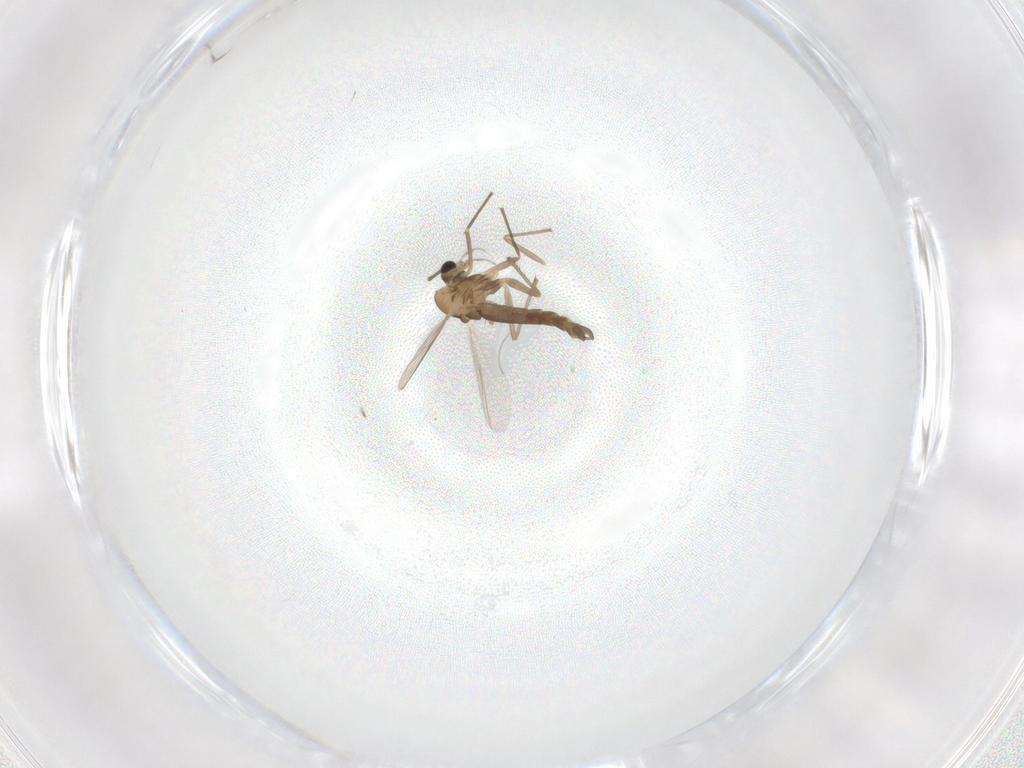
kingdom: Animalia
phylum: Arthropoda
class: Insecta
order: Diptera
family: Chironomidae
